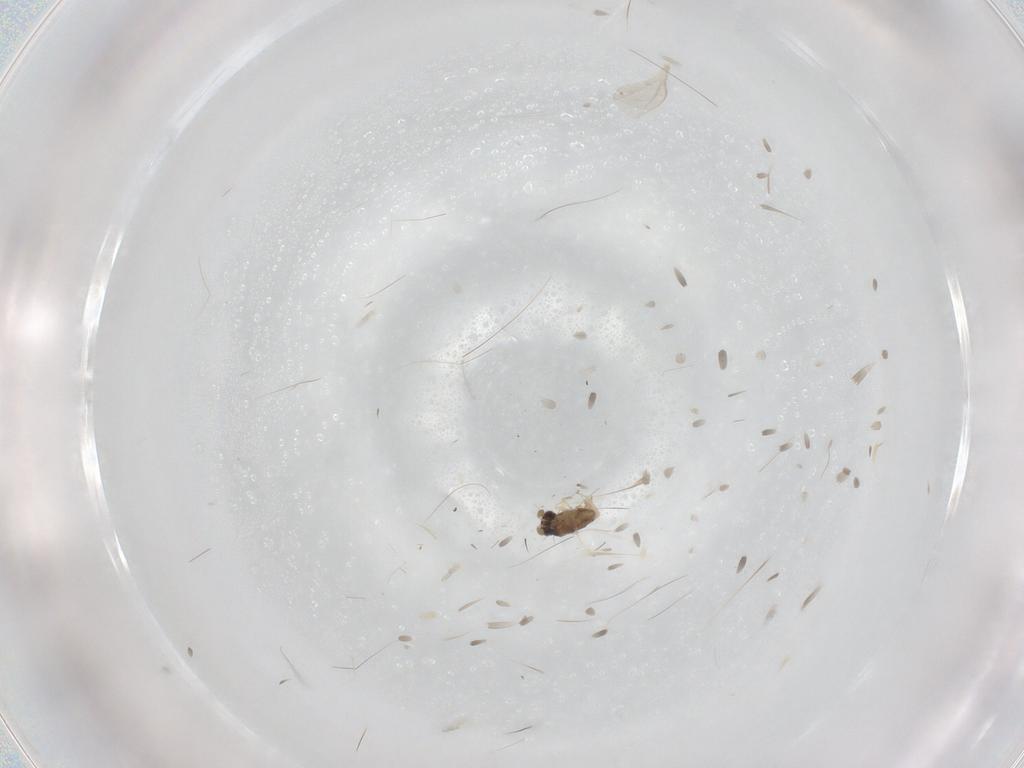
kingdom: Animalia
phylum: Arthropoda
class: Insecta
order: Hymenoptera
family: Encyrtidae
